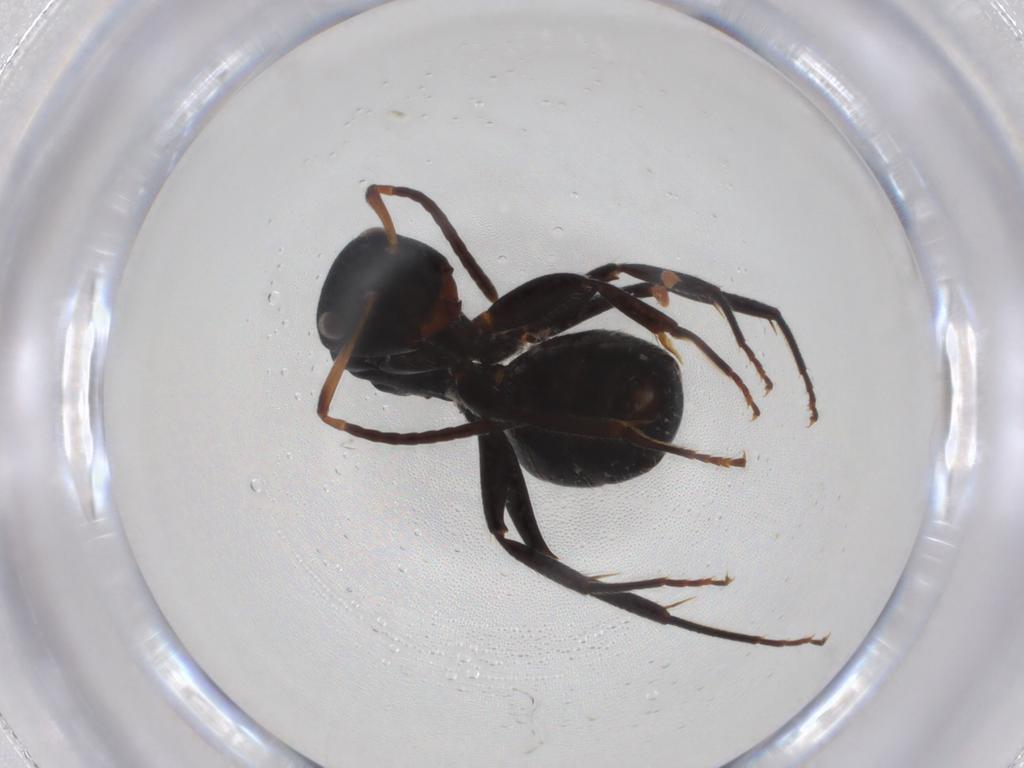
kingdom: Animalia
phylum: Arthropoda
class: Insecta
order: Hymenoptera
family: Formicidae
